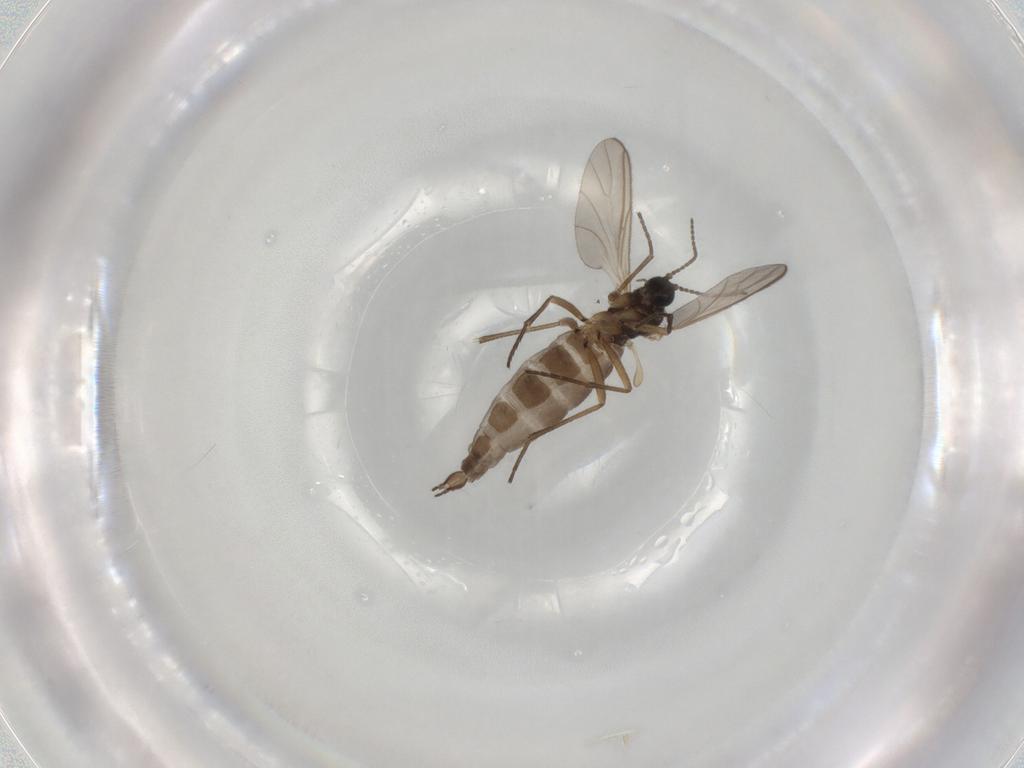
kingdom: Animalia
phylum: Arthropoda
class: Insecta
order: Diptera
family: Sciaridae
